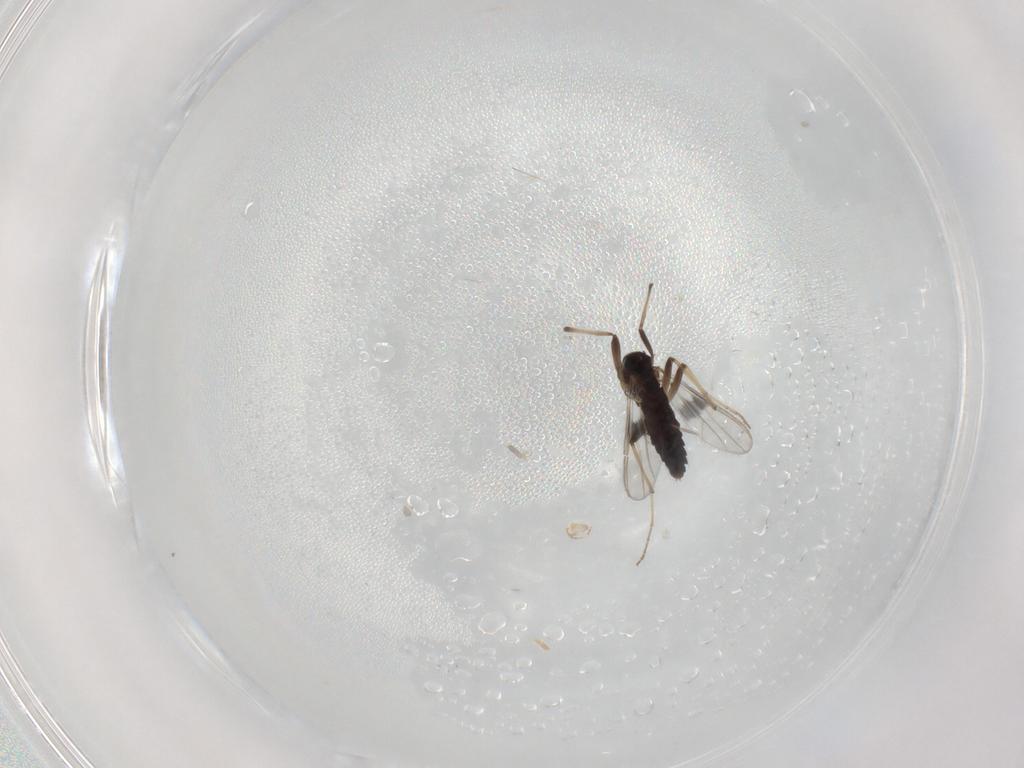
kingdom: Animalia
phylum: Arthropoda
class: Insecta
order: Diptera
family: Chironomidae
